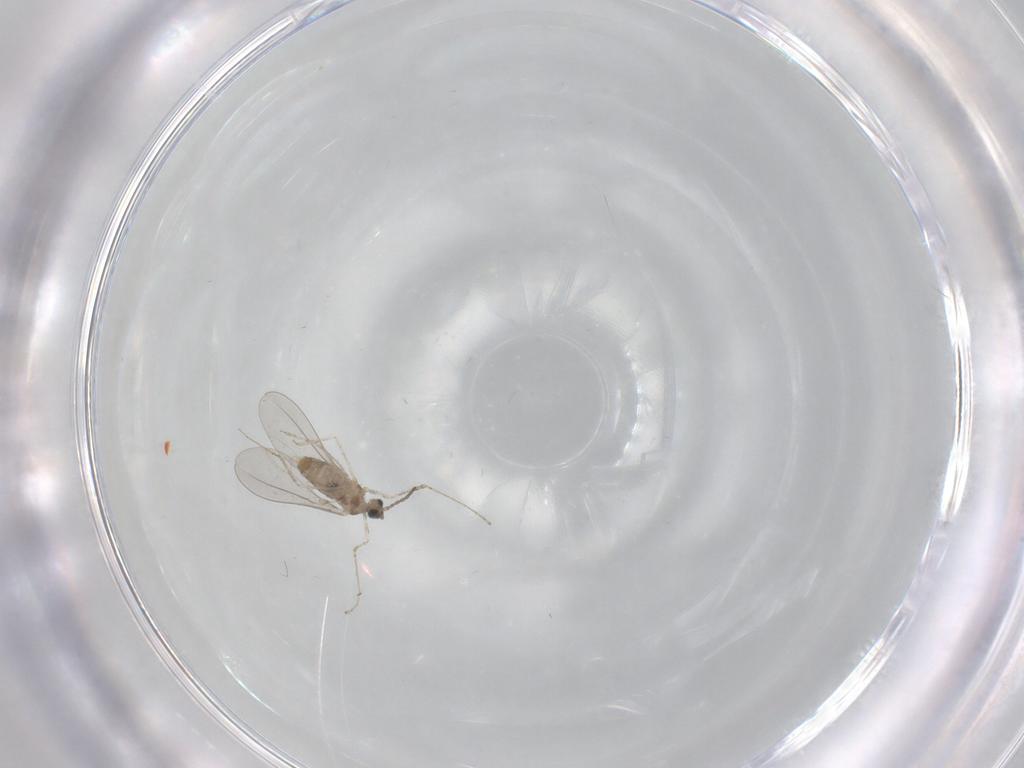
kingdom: Animalia
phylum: Arthropoda
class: Insecta
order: Diptera
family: Cecidomyiidae
